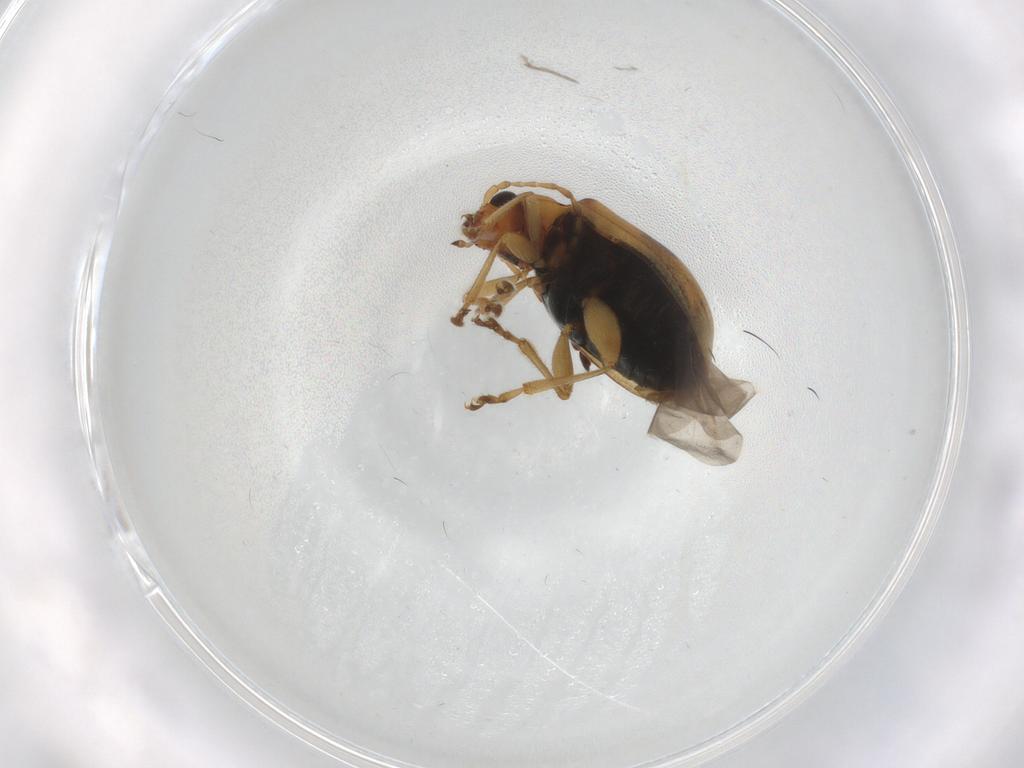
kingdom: Animalia
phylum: Arthropoda
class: Insecta
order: Coleoptera
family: Chrysomelidae
